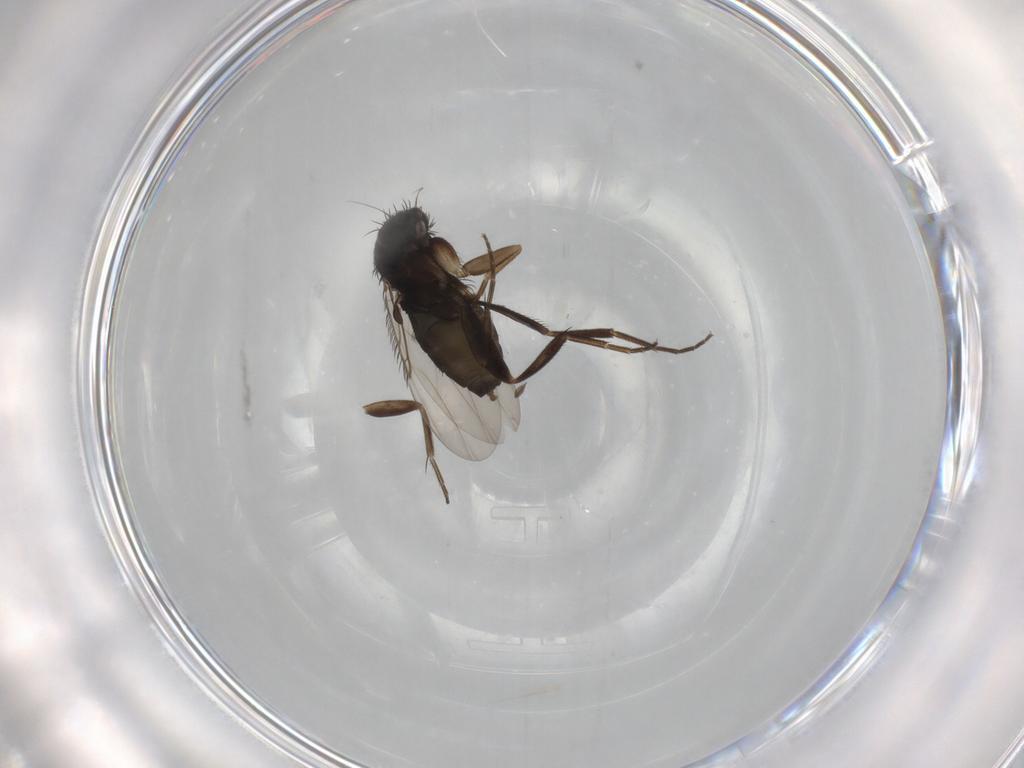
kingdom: Animalia
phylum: Arthropoda
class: Insecta
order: Diptera
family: Phoridae
